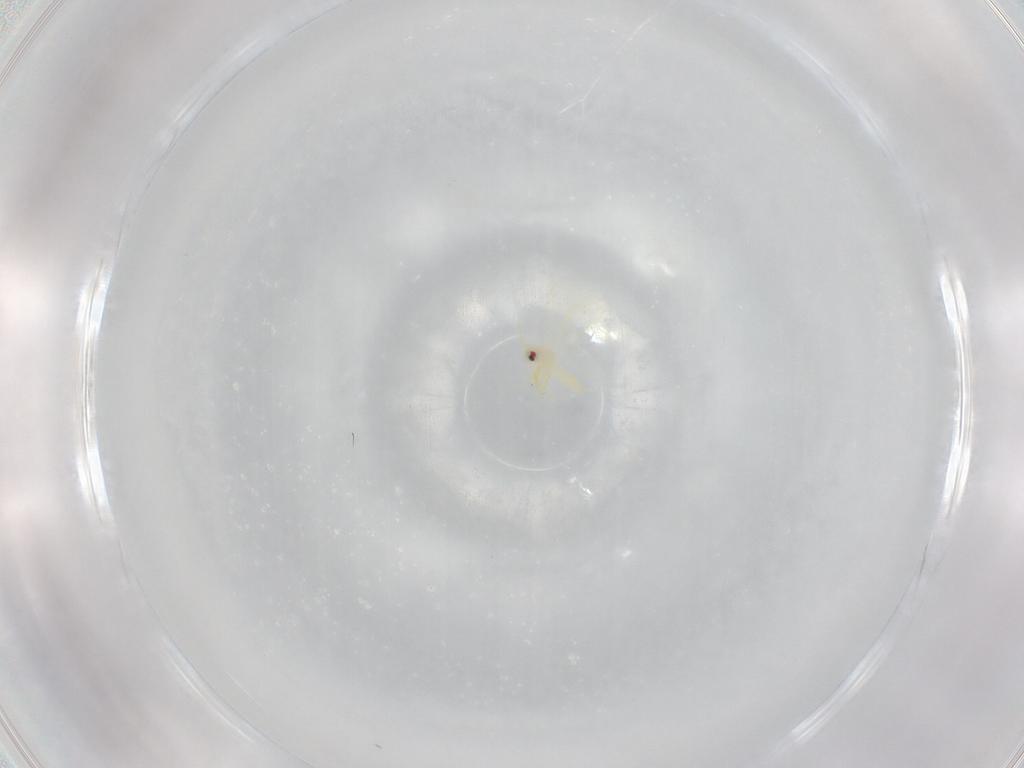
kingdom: Animalia
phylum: Arthropoda
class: Insecta
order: Hemiptera
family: Aleyrodidae
